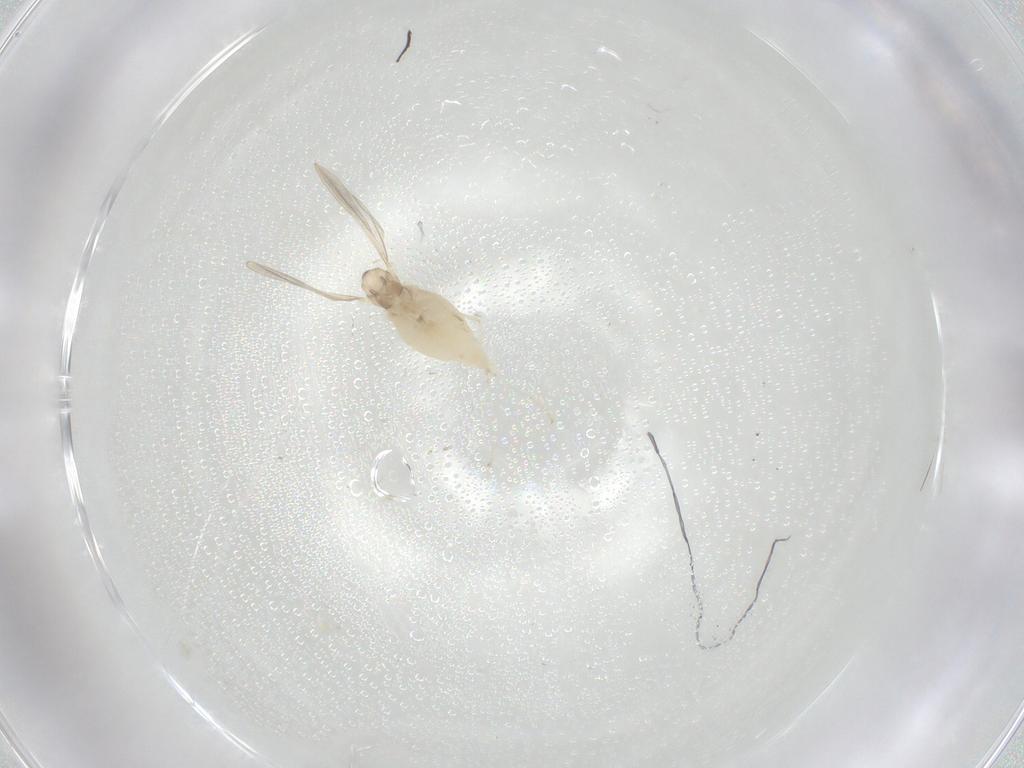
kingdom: Animalia
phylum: Arthropoda
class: Insecta
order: Diptera
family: Cecidomyiidae
